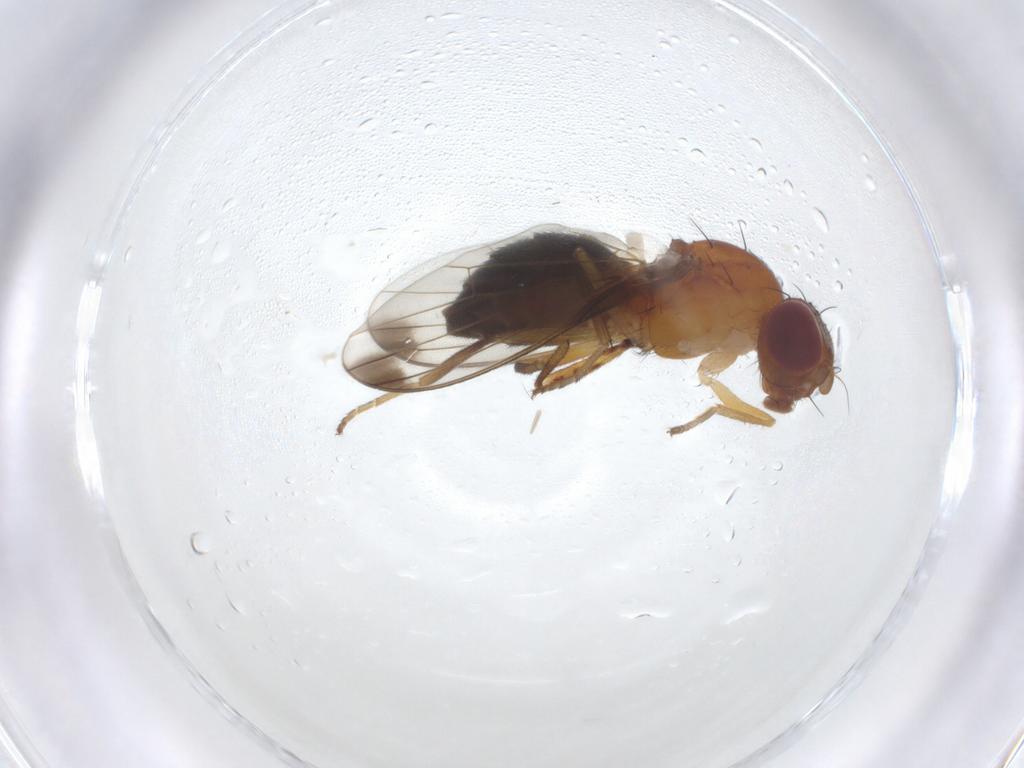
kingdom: Animalia
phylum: Arthropoda
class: Insecta
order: Diptera
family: Piophilidae
